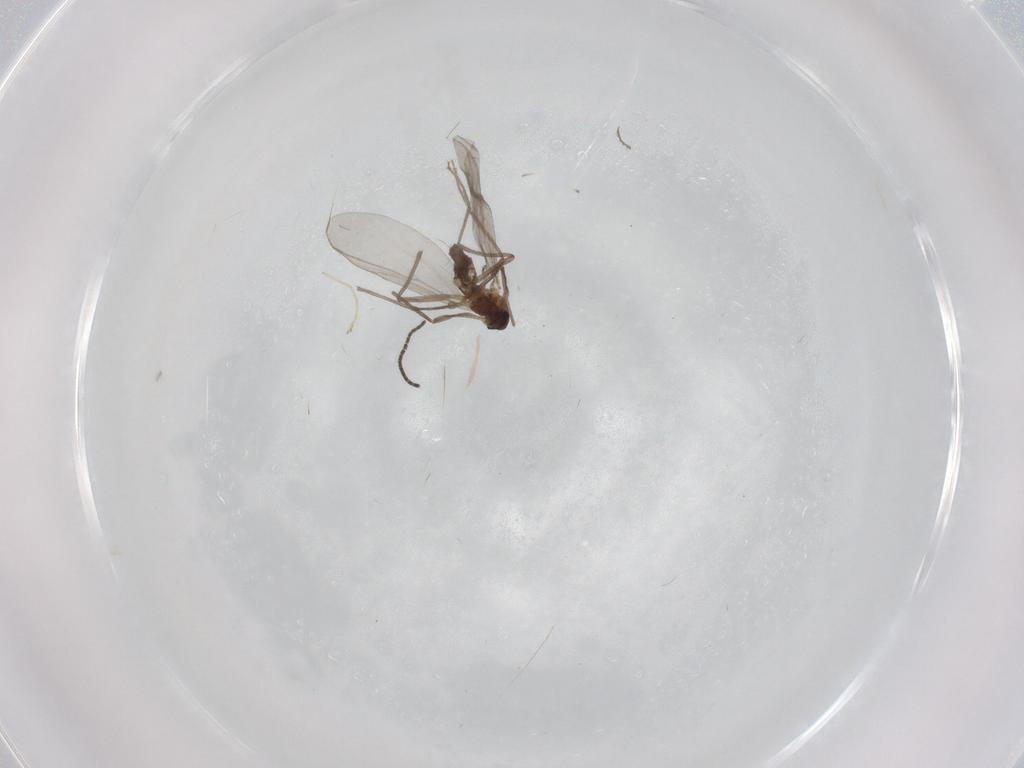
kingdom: Animalia
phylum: Arthropoda
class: Insecta
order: Diptera
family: Chironomidae
